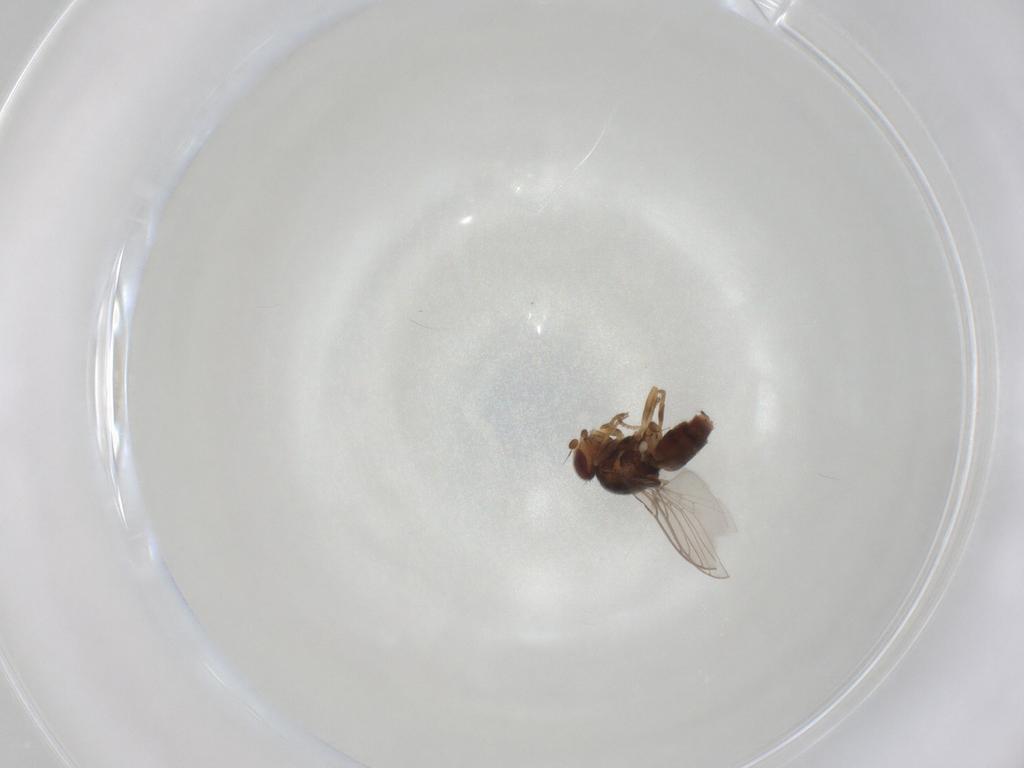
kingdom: Animalia
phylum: Arthropoda
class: Insecta
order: Diptera
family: Chloropidae
